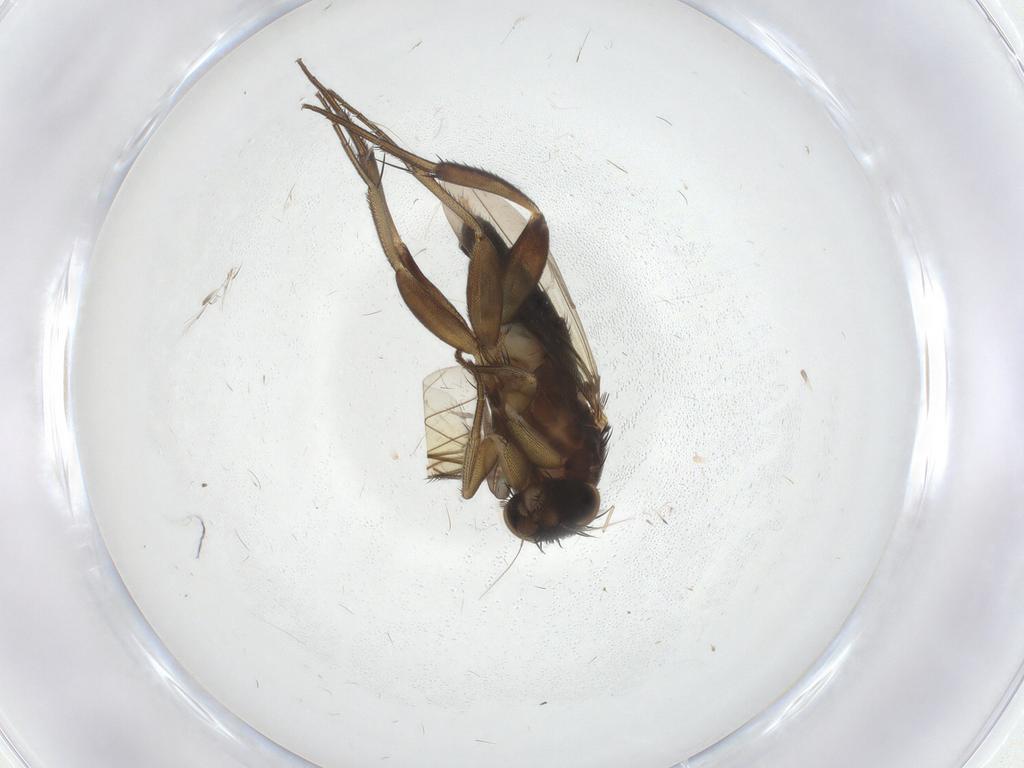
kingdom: Animalia
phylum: Arthropoda
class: Insecta
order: Diptera
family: Phoridae
